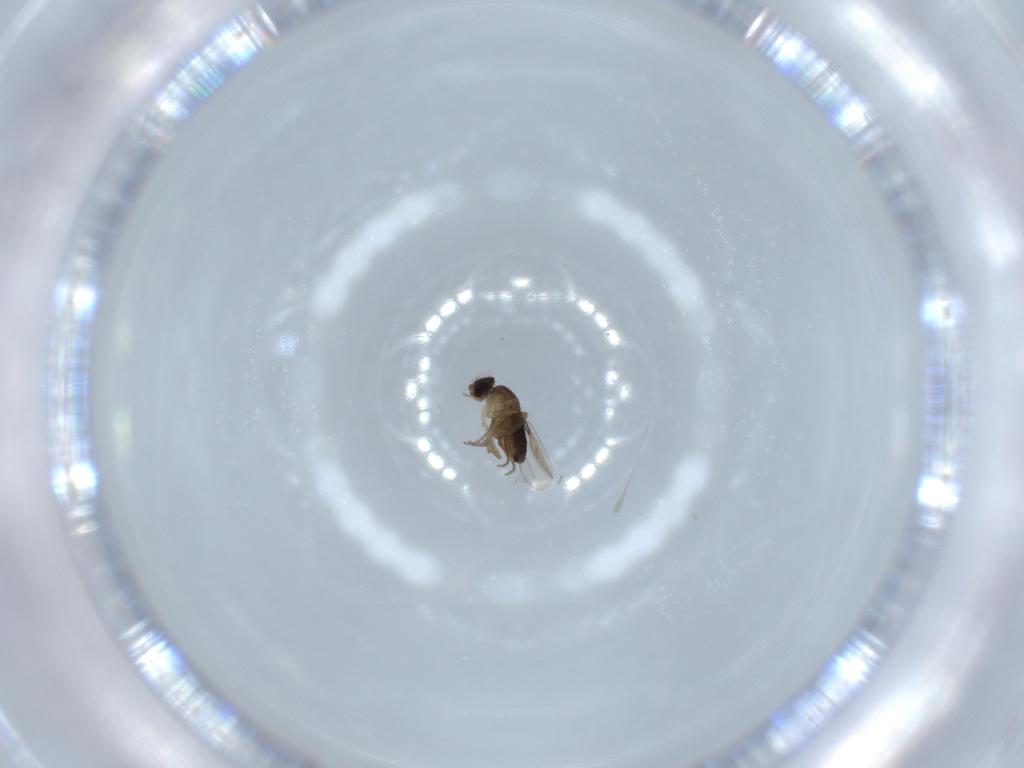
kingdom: Animalia
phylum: Arthropoda
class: Insecta
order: Diptera
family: Phoridae
